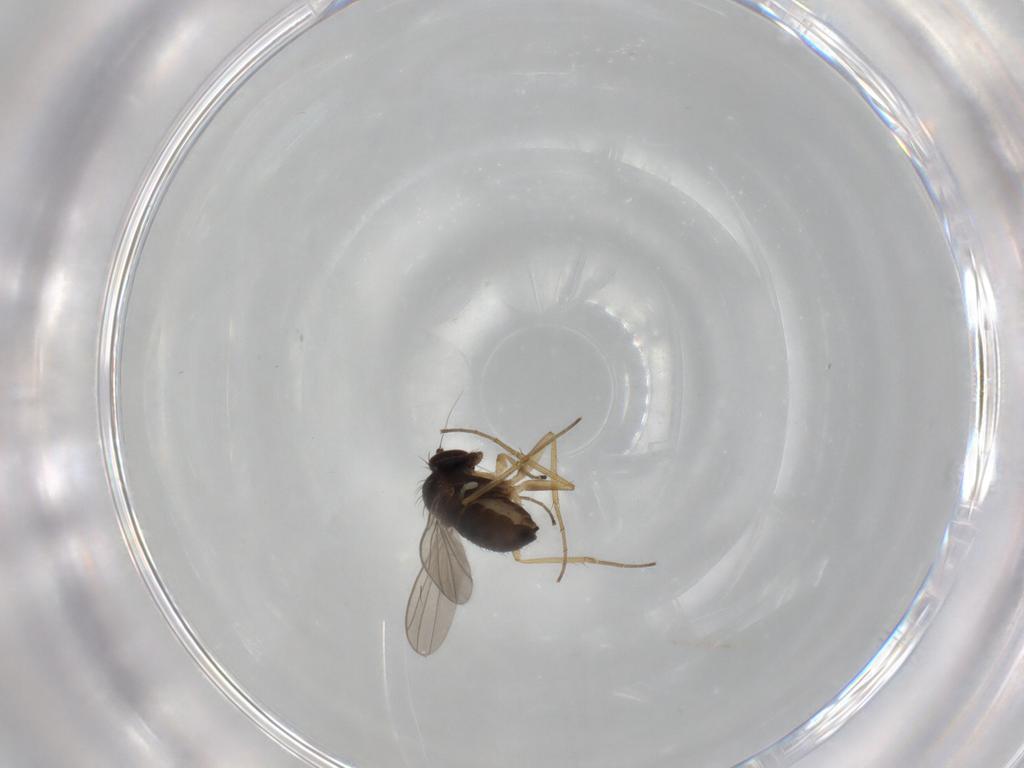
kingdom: Animalia
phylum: Arthropoda
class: Insecta
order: Diptera
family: Dolichopodidae
